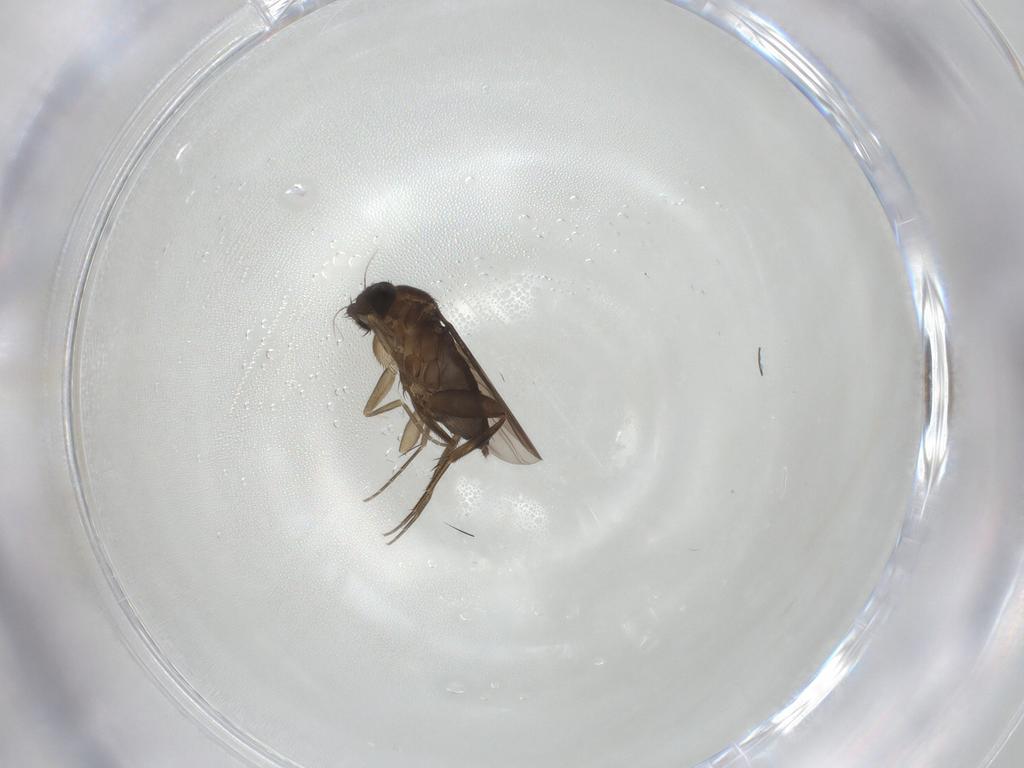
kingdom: Animalia
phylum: Arthropoda
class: Insecta
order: Diptera
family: Phoridae
